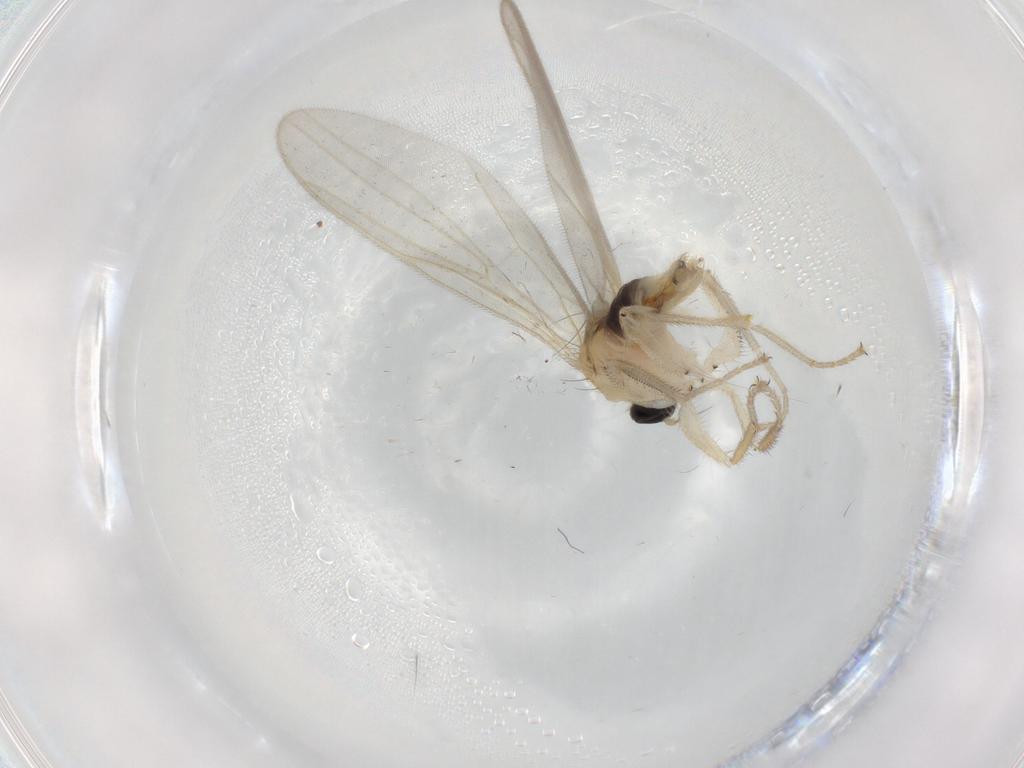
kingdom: Animalia
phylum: Arthropoda
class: Insecta
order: Diptera
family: Hybotidae
